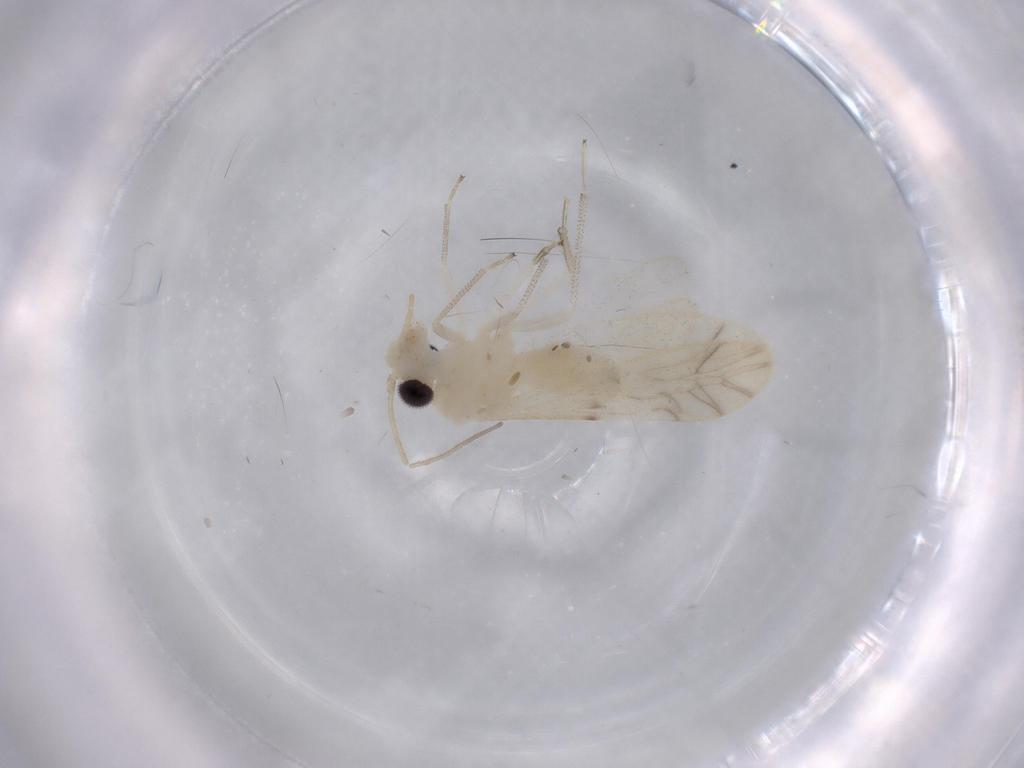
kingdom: Animalia
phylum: Arthropoda
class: Insecta
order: Psocodea
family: Caeciliusidae
